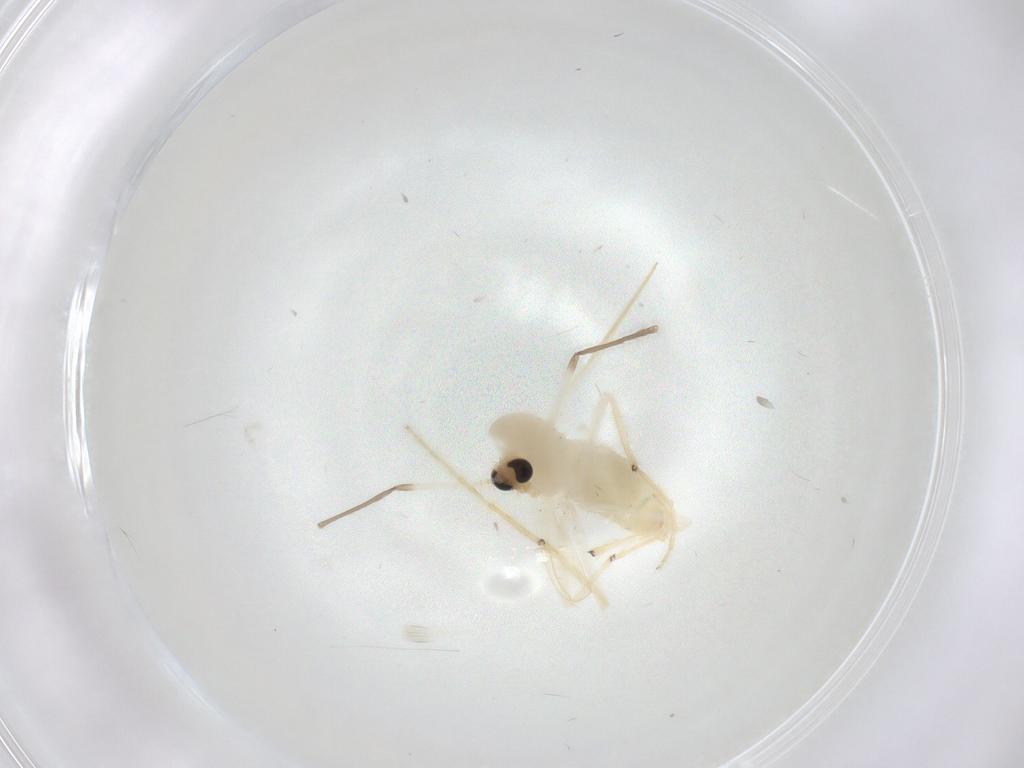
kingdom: Animalia
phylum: Arthropoda
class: Insecta
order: Diptera
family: Chironomidae
